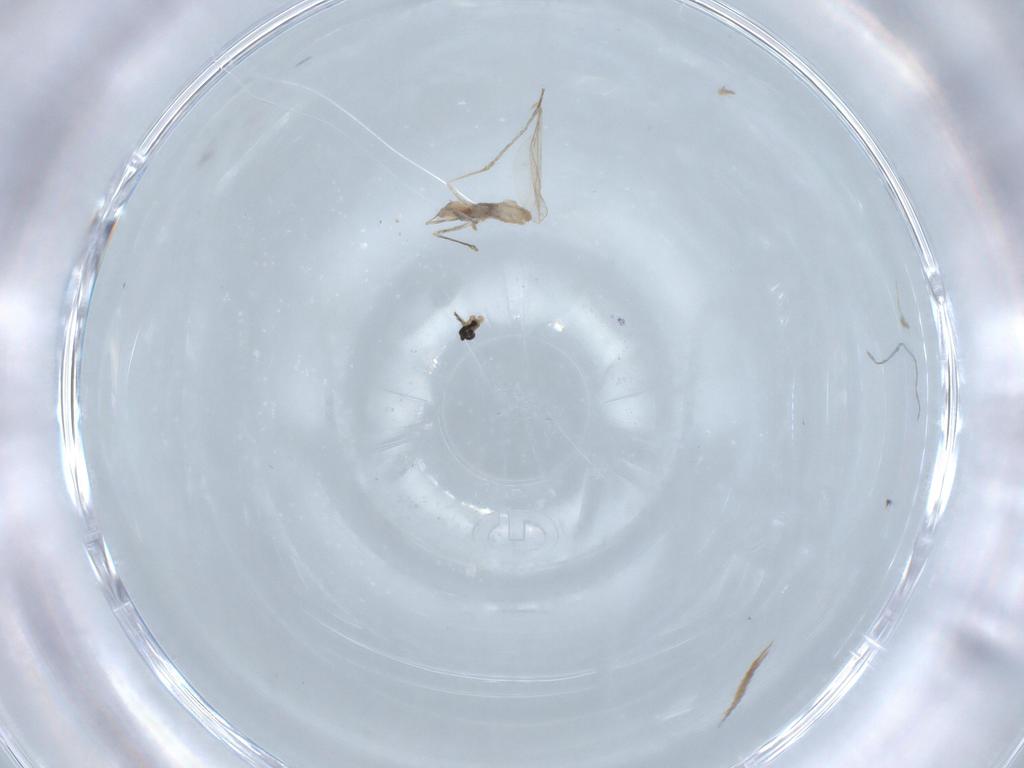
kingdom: Animalia
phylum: Arthropoda
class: Insecta
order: Diptera
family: Cecidomyiidae
